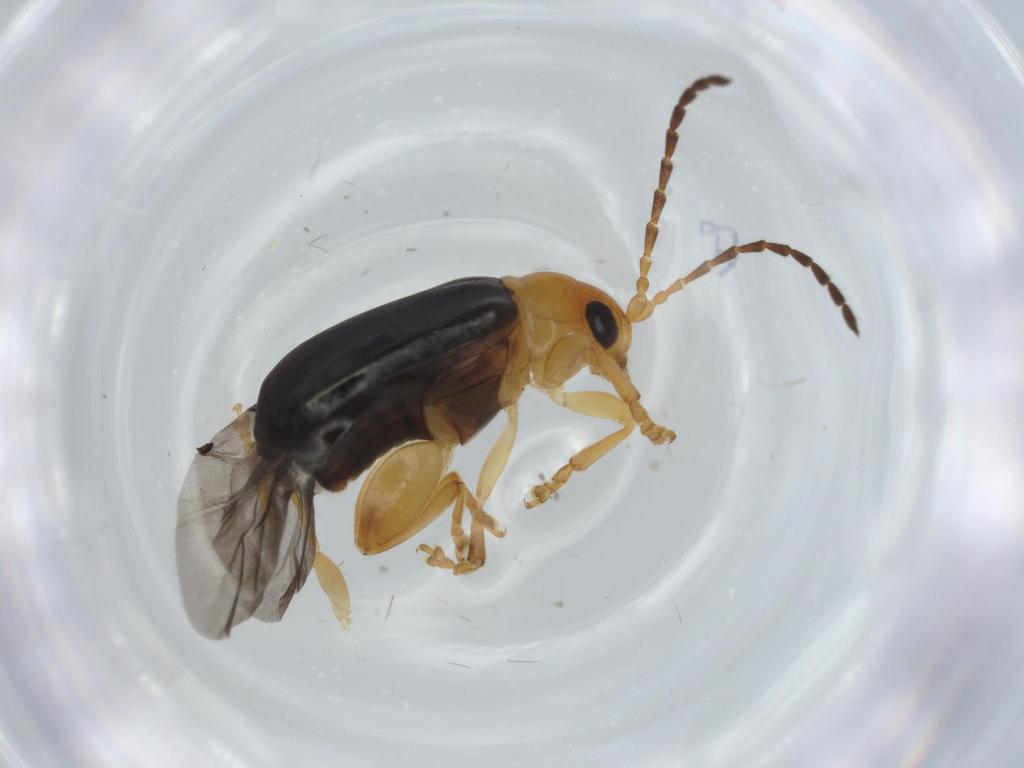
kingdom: Animalia
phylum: Arthropoda
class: Insecta
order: Coleoptera
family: Chrysomelidae
